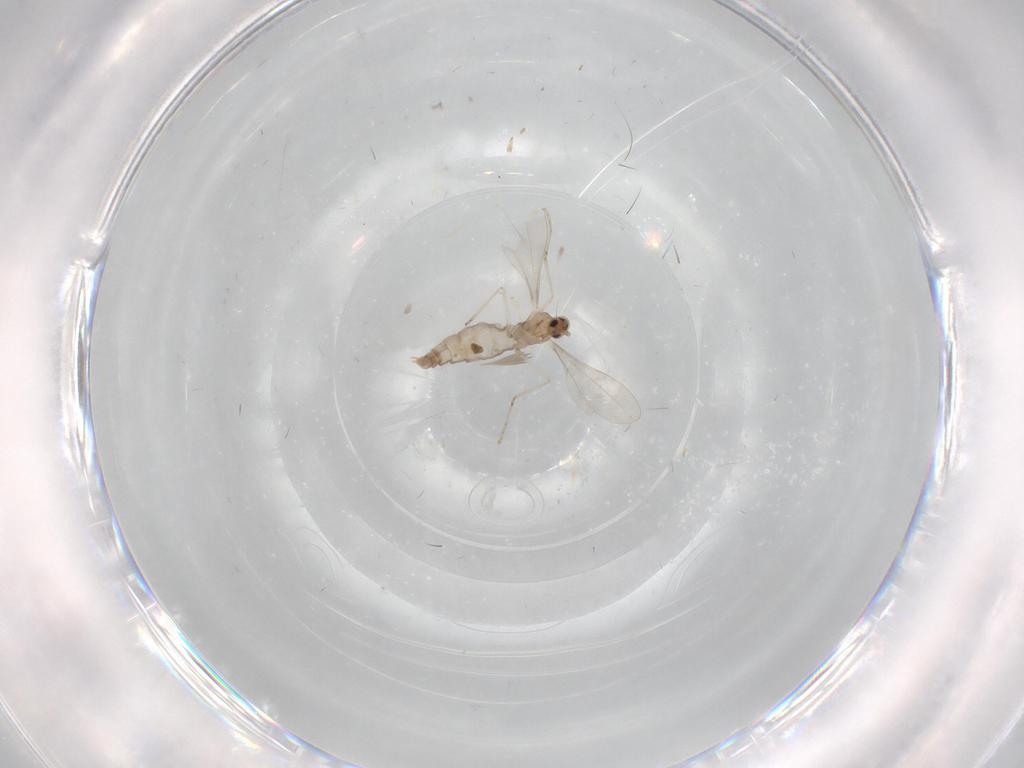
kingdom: Animalia
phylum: Arthropoda
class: Insecta
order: Diptera
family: Cecidomyiidae
